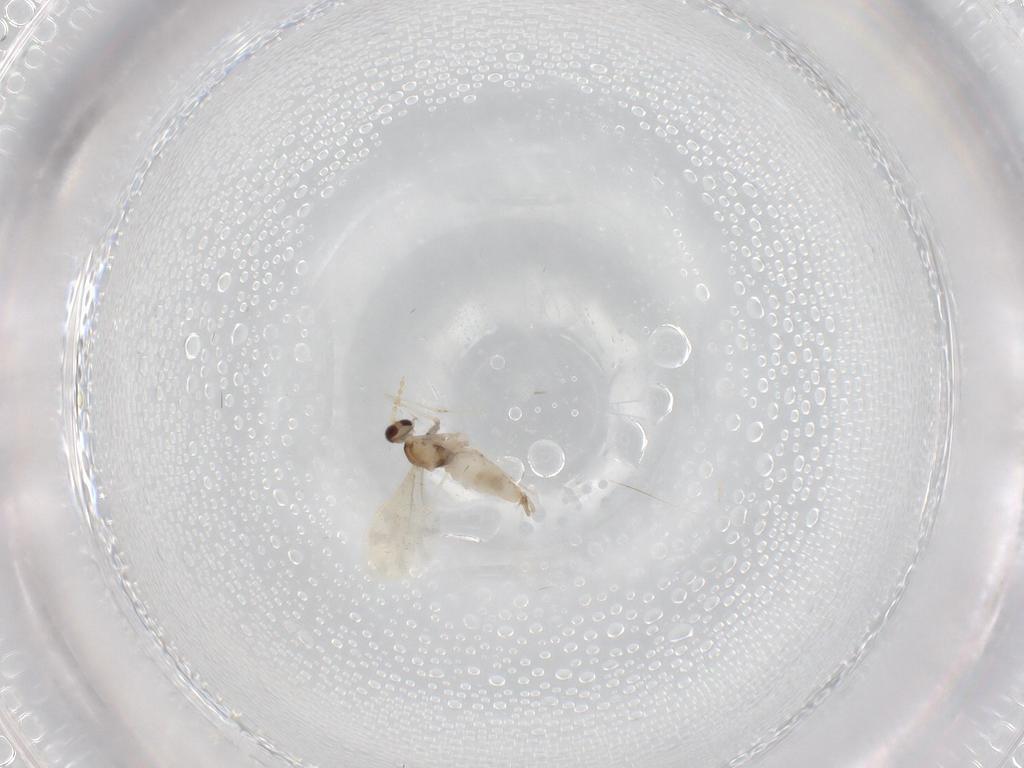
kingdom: Animalia
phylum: Arthropoda
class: Insecta
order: Diptera
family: Cecidomyiidae
